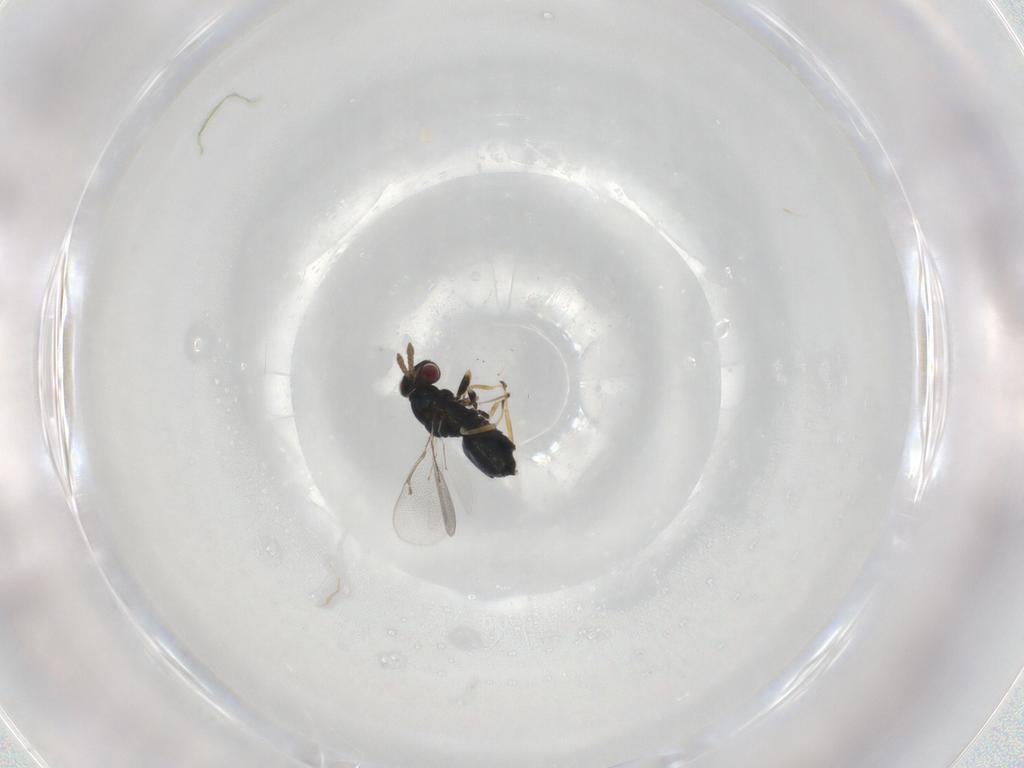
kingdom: Animalia
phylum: Arthropoda
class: Insecta
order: Hymenoptera
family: Eulophidae
